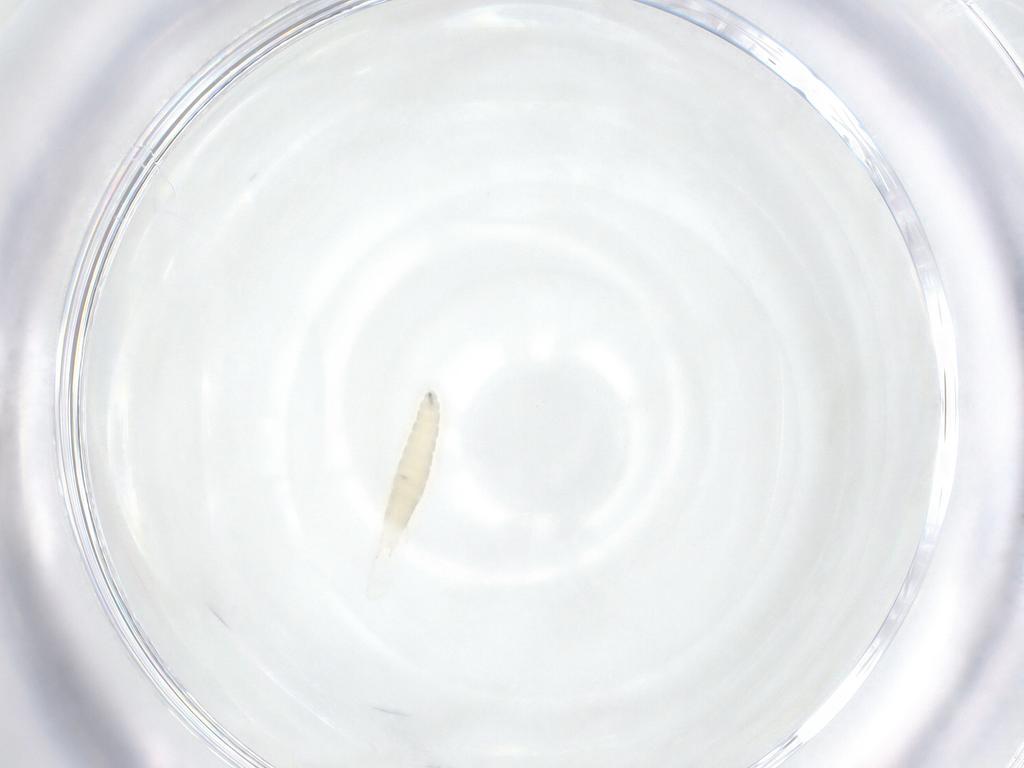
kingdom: Animalia
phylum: Arthropoda
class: Insecta
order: Diptera
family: Tachinidae
